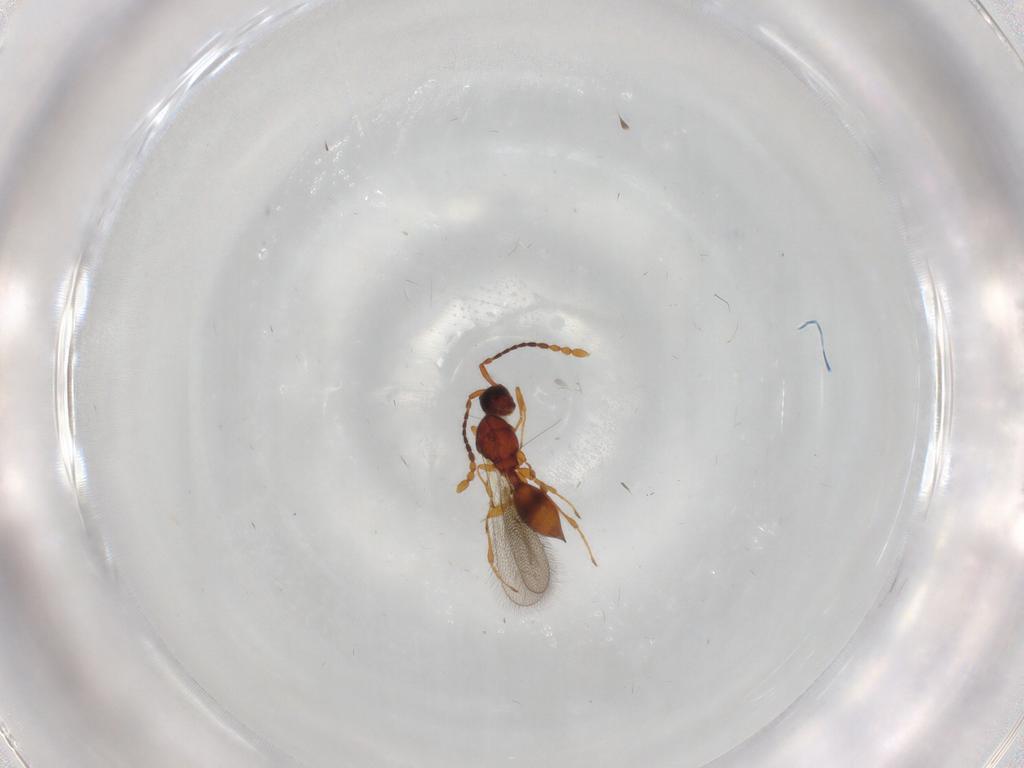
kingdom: Animalia
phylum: Arthropoda
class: Insecta
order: Hymenoptera
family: Diapriidae
